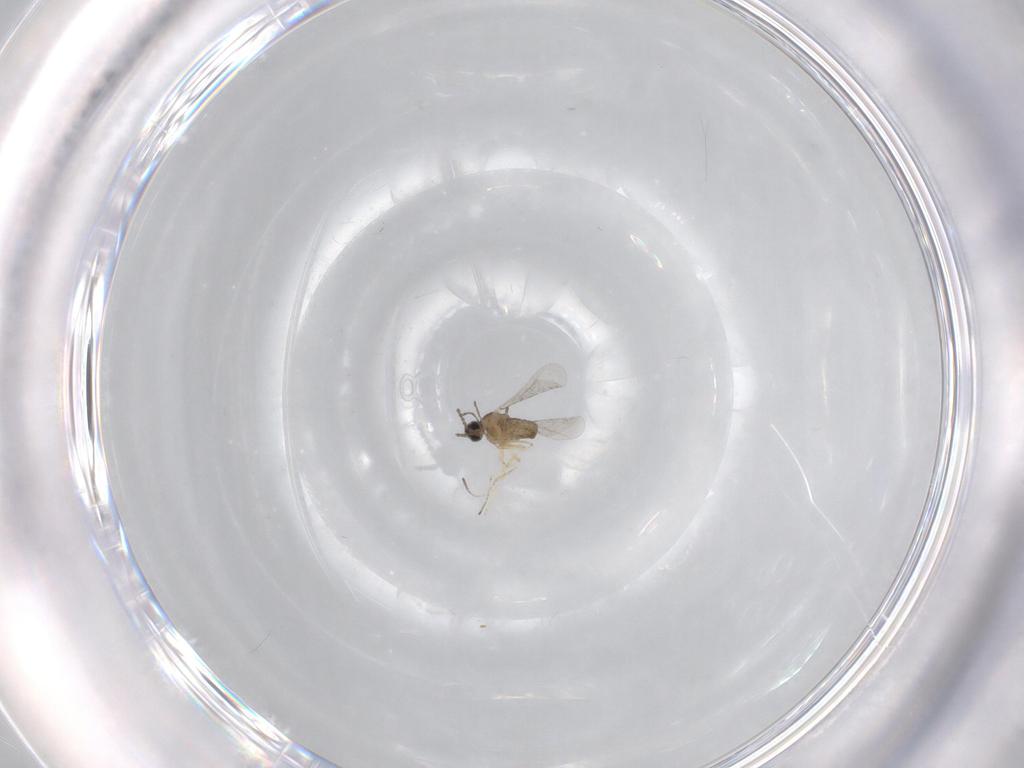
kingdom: Animalia
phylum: Arthropoda
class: Insecta
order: Diptera
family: Cecidomyiidae
